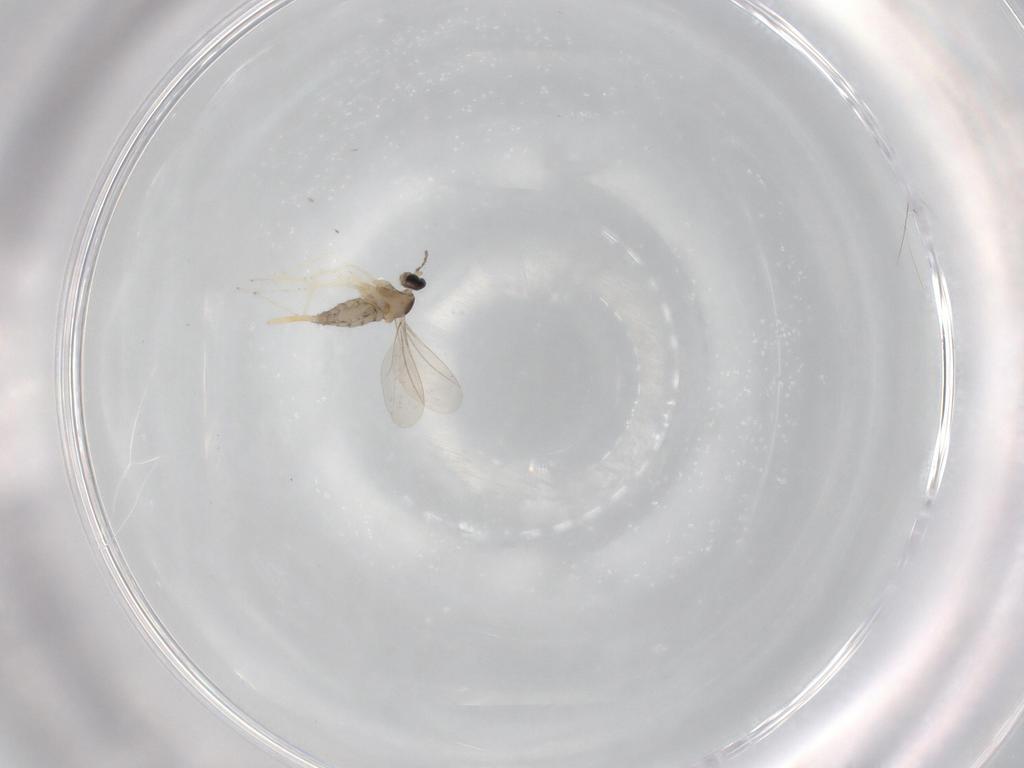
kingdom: Animalia
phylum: Arthropoda
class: Insecta
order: Diptera
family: Cecidomyiidae
